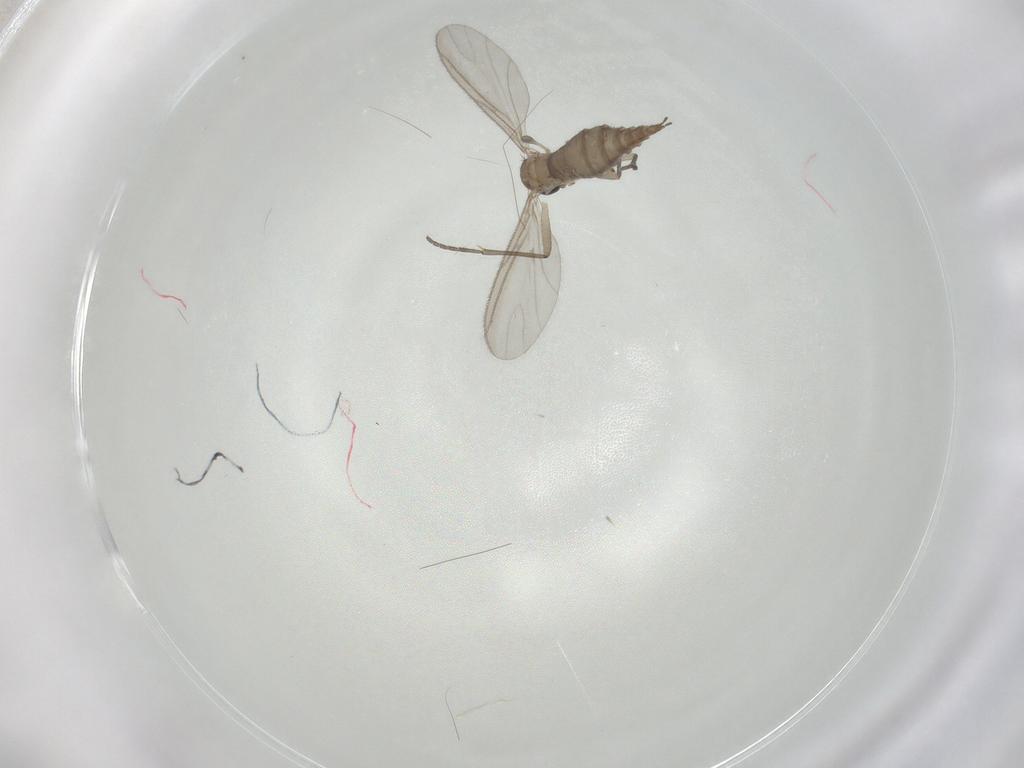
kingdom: Animalia
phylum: Arthropoda
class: Insecta
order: Diptera
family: Sciaridae
